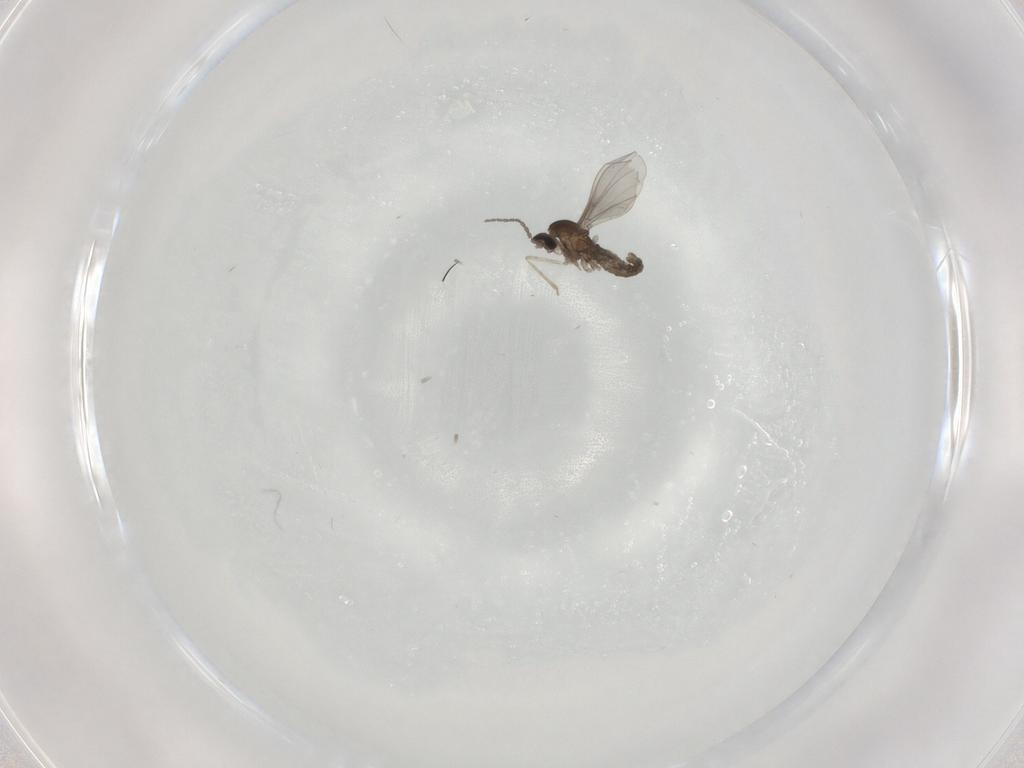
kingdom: Animalia
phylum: Arthropoda
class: Insecta
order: Diptera
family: Cecidomyiidae
